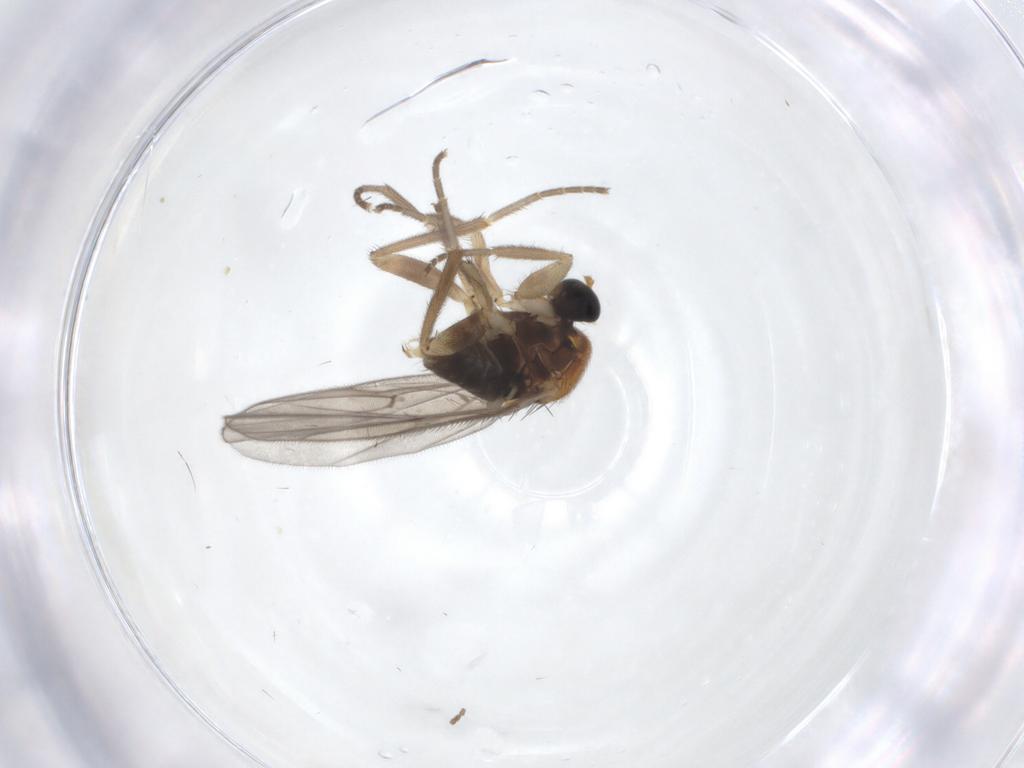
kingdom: Animalia
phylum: Arthropoda
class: Insecta
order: Diptera
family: Hybotidae
